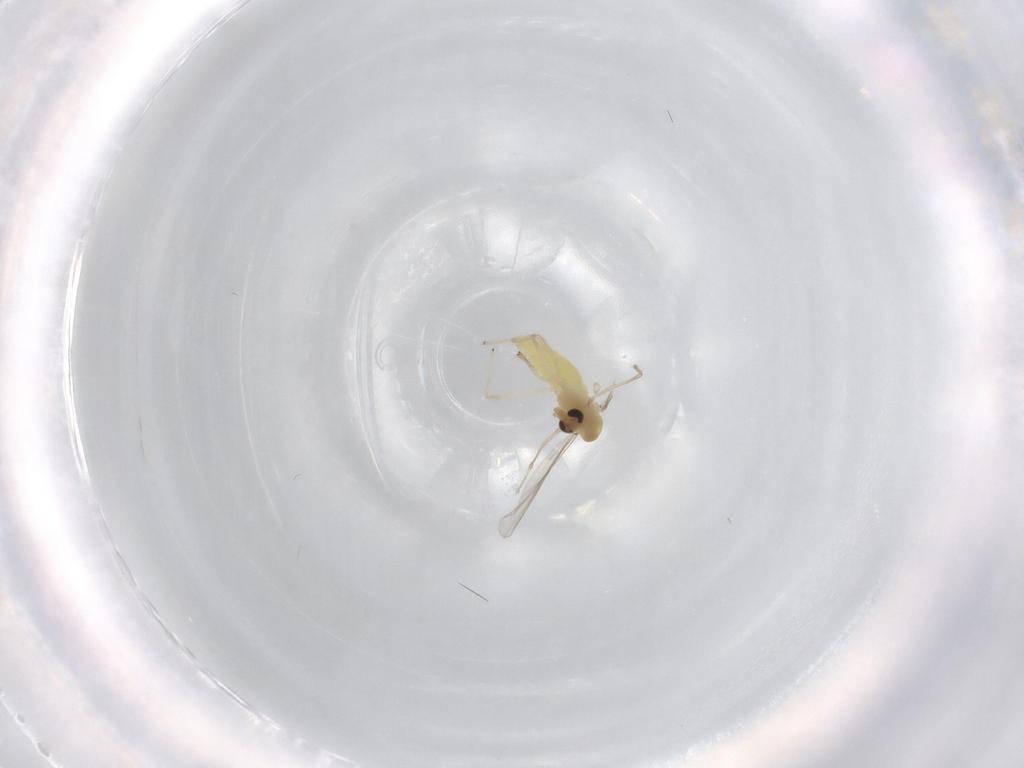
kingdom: Animalia
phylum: Arthropoda
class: Insecta
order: Diptera
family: Chironomidae
